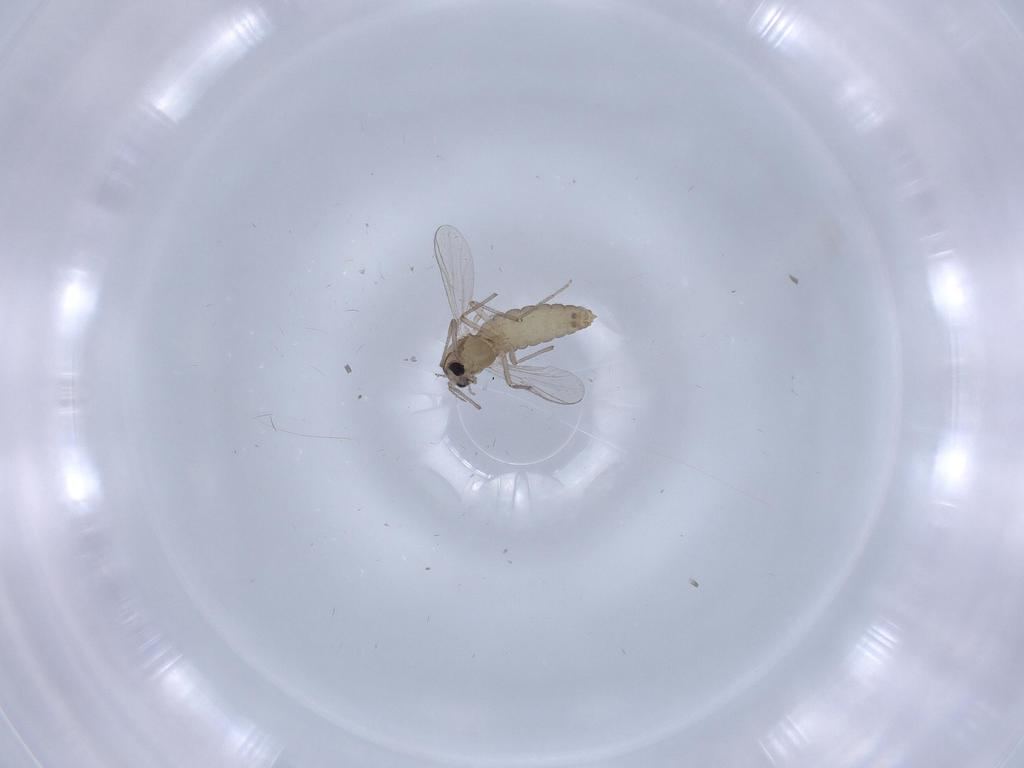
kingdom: Animalia
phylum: Arthropoda
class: Insecta
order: Diptera
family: Chironomidae
